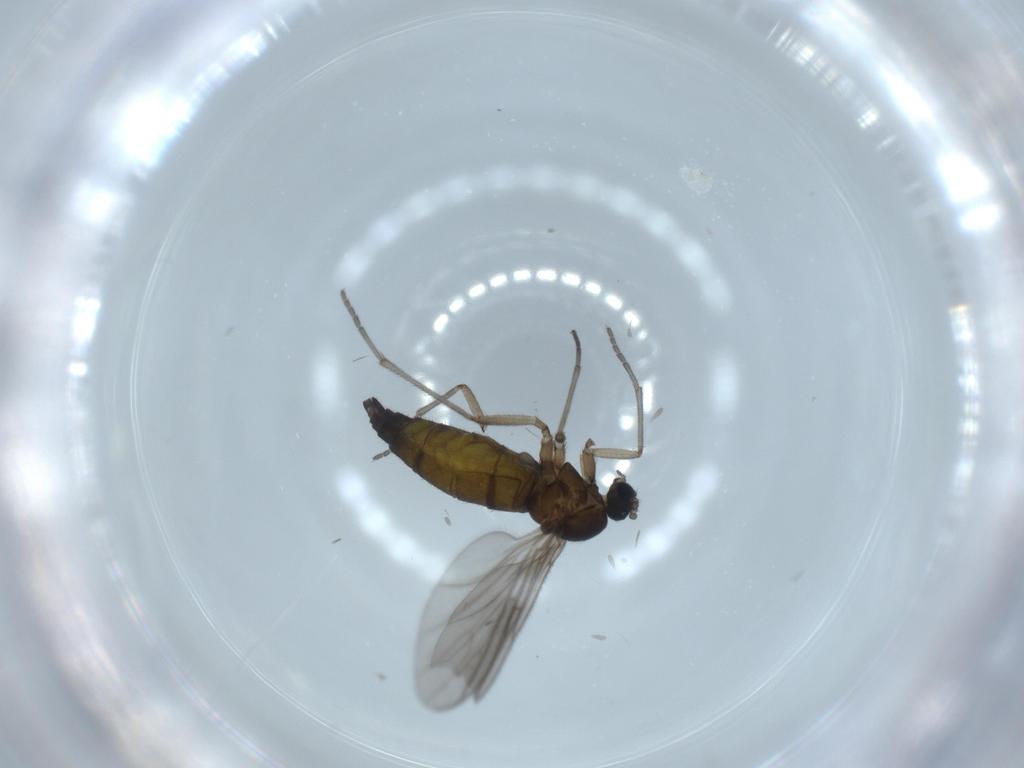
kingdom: Animalia
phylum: Arthropoda
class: Insecta
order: Diptera
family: Sciaridae
